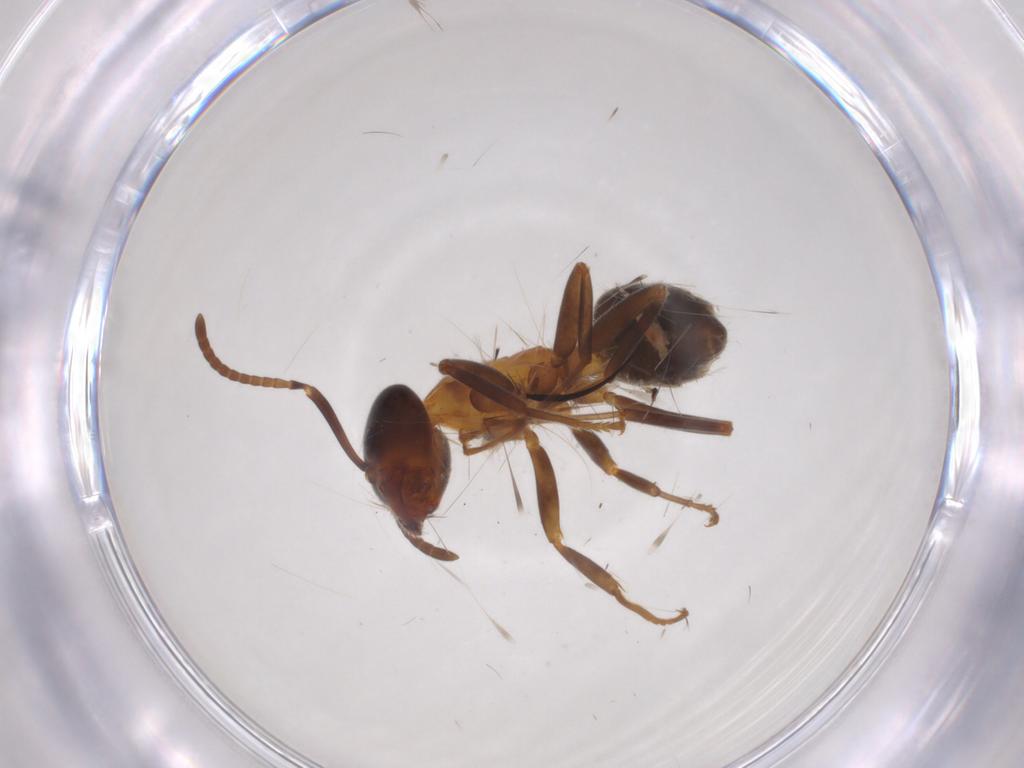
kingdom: Animalia
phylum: Arthropoda
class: Insecta
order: Hymenoptera
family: Formicidae
